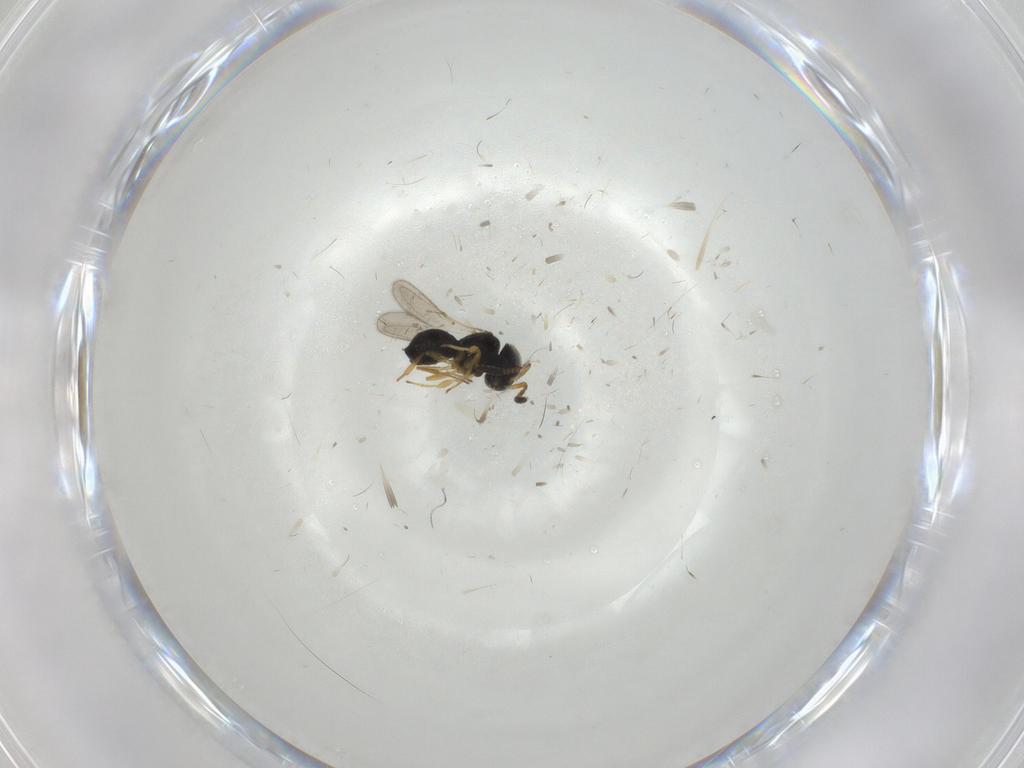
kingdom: Animalia
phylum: Arthropoda
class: Insecta
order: Hymenoptera
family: Scelionidae
